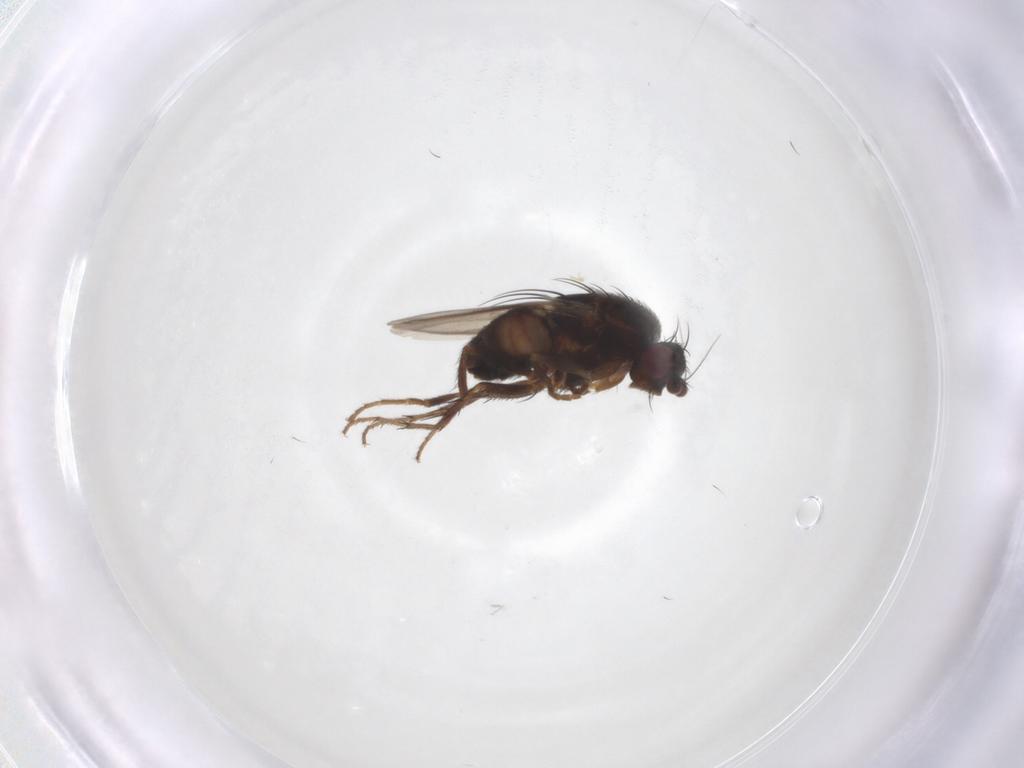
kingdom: Animalia
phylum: Arthropoda
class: Insecta
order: Diptera
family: Sphaeroceridae
